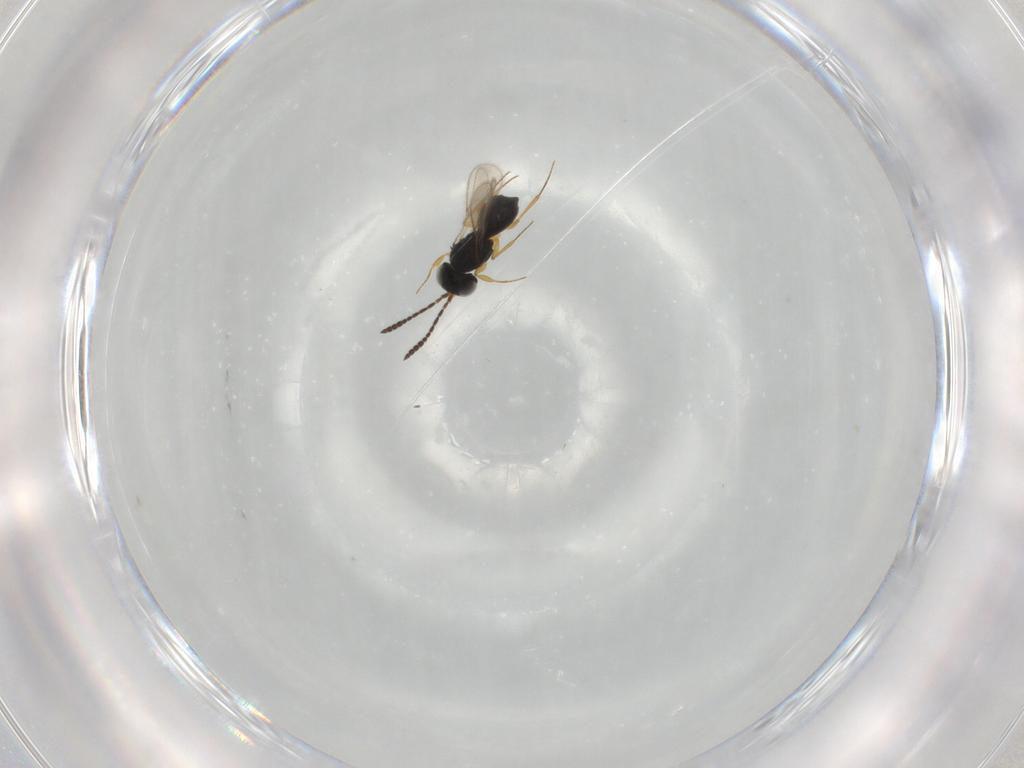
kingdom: Animalia
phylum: Arthropoda
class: Insecta
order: Hymenoptera
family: Scelionidae
